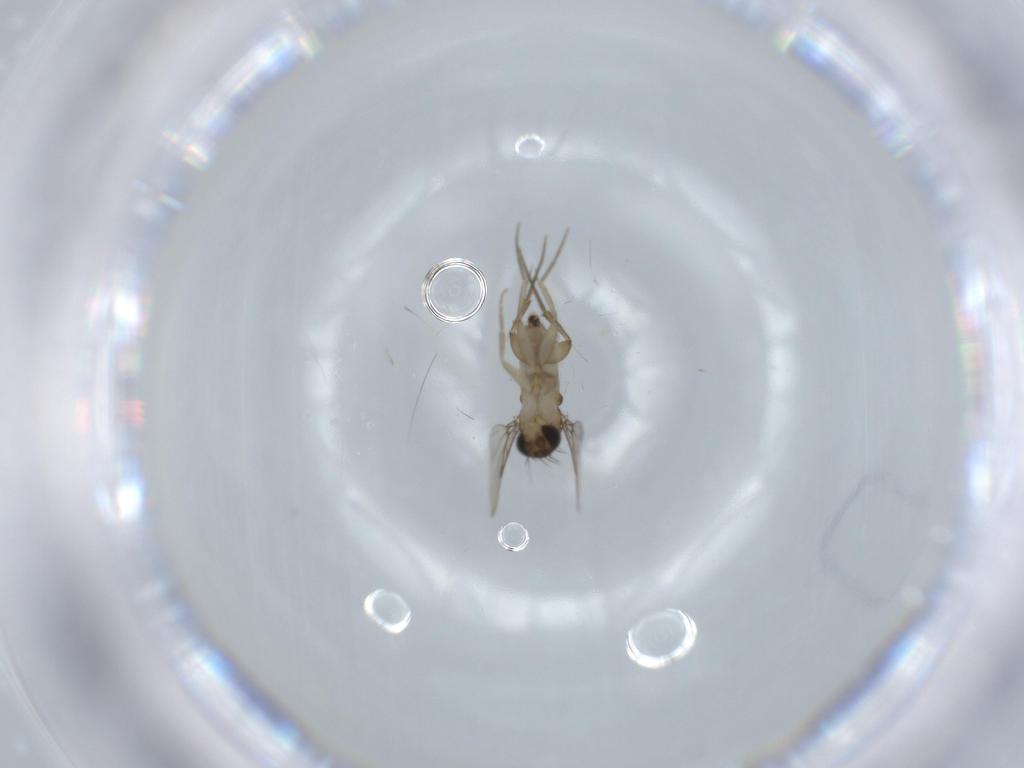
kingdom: Animalia
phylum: Arthropoda
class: Insecta
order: Diptera
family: Phoridae
